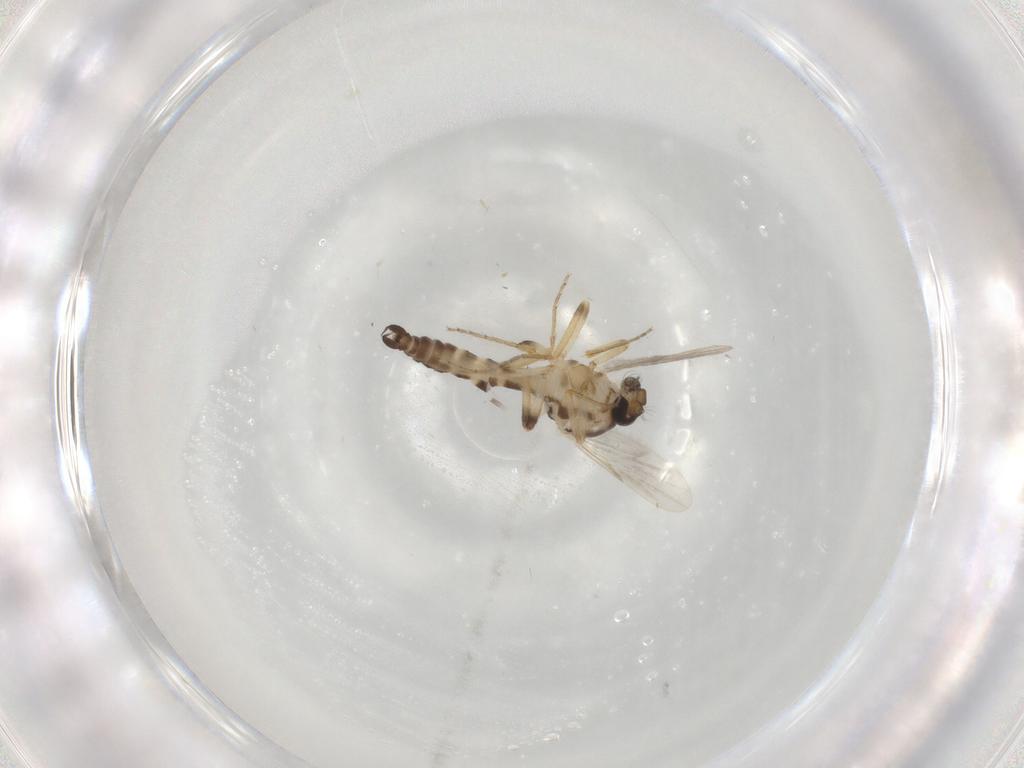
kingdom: Animalia
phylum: Arthropoda
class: Insecta
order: Diptera
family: Ceratopogonidae
